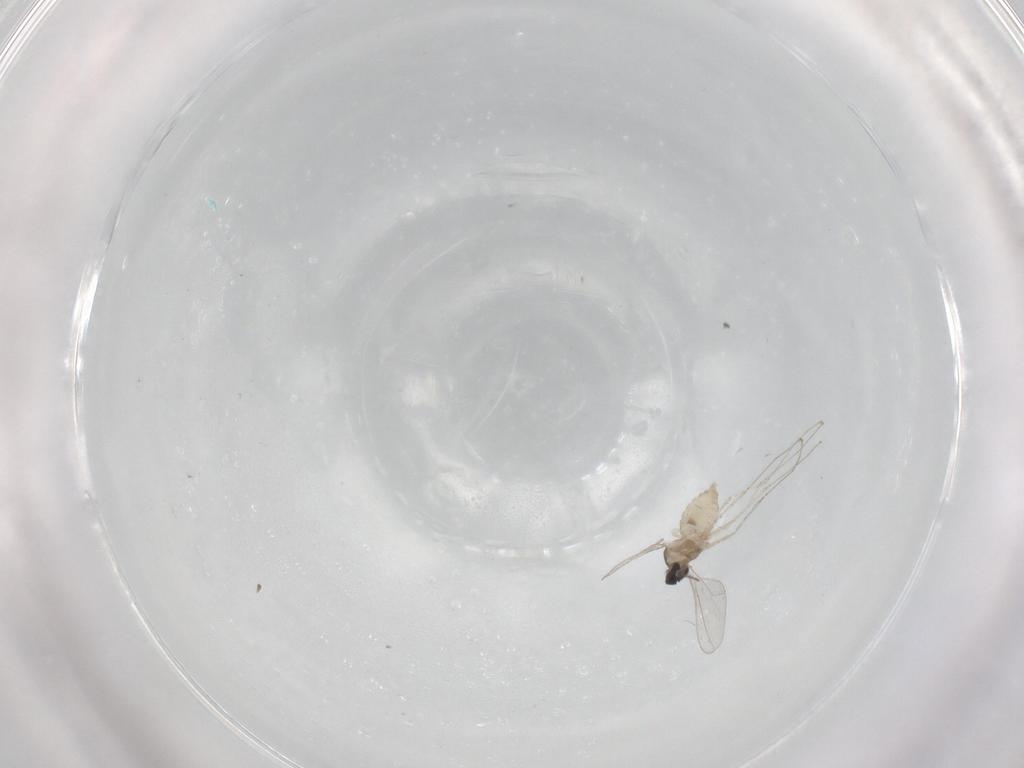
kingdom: Animalia
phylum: Arthropoda
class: Insecta
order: Diptera
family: Cecidomyiidae
